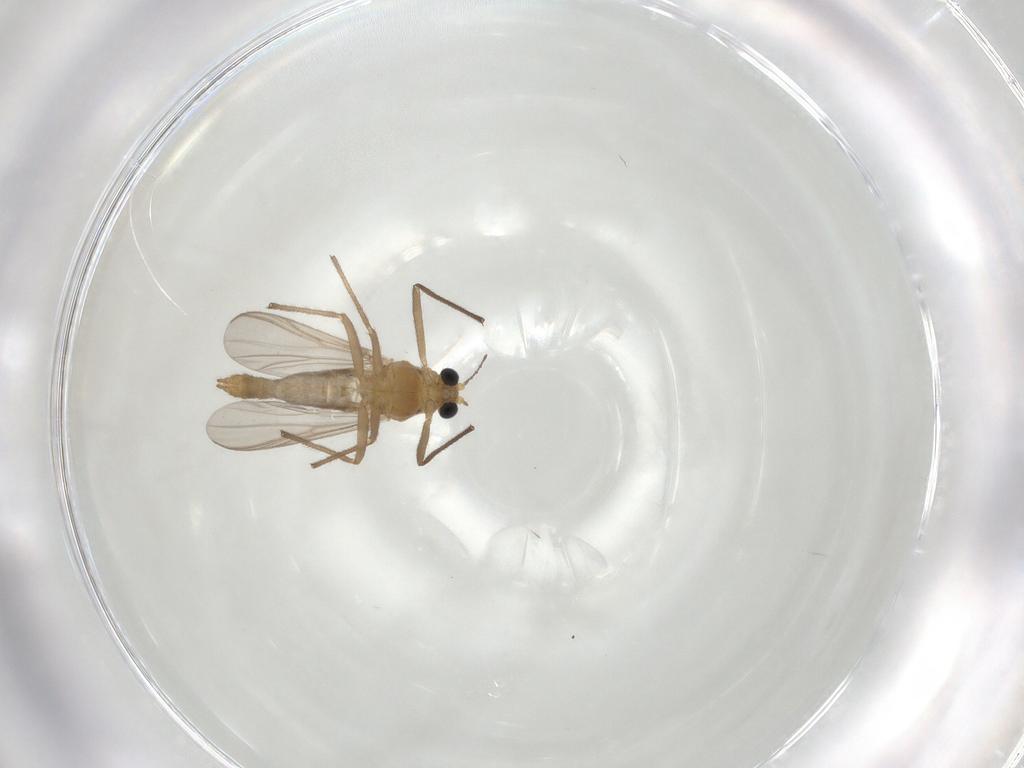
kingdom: Animalia
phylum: Arthropoda
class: Insecta
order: Diptera
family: Chironomidae
